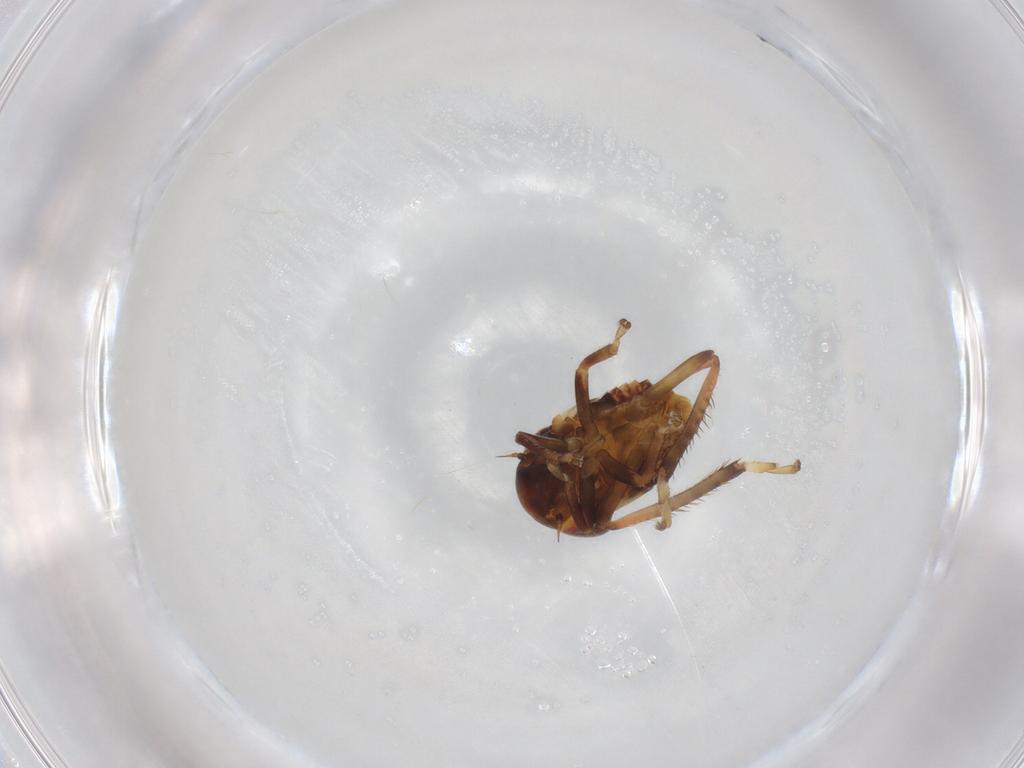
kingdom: Animalia
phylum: Arthropoda
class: Insecta
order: Hemiptera
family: Cicadellidae
